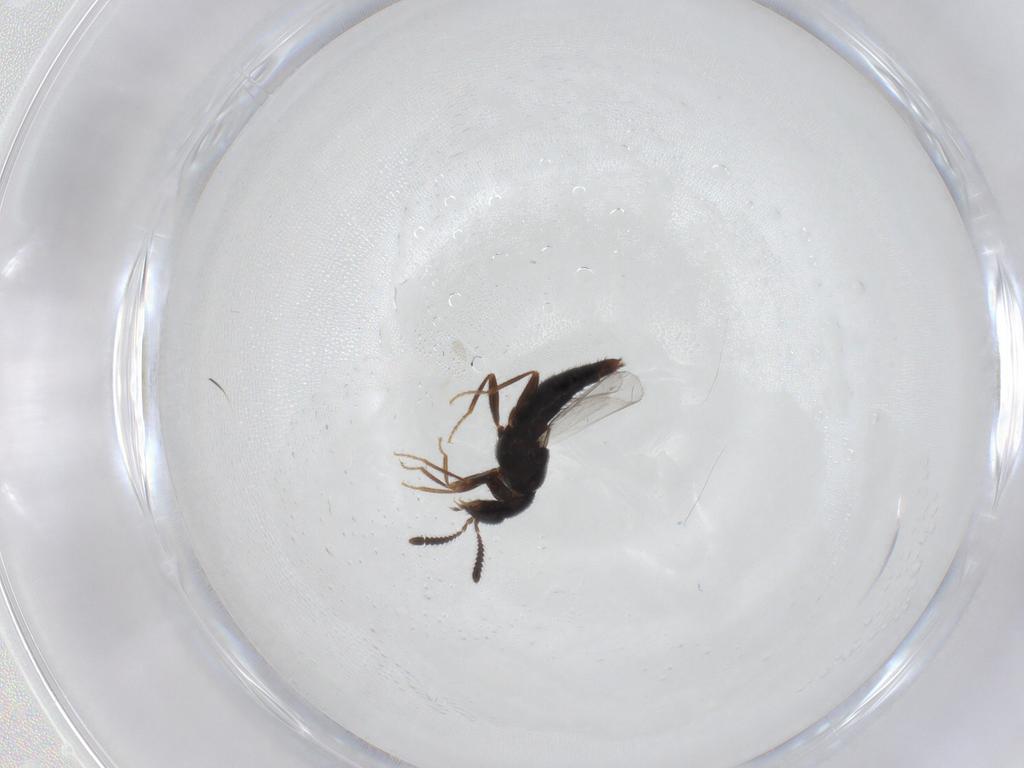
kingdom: Animalia
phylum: Arthropoda
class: Insecta
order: Coleoptera
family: Staphylinidae
